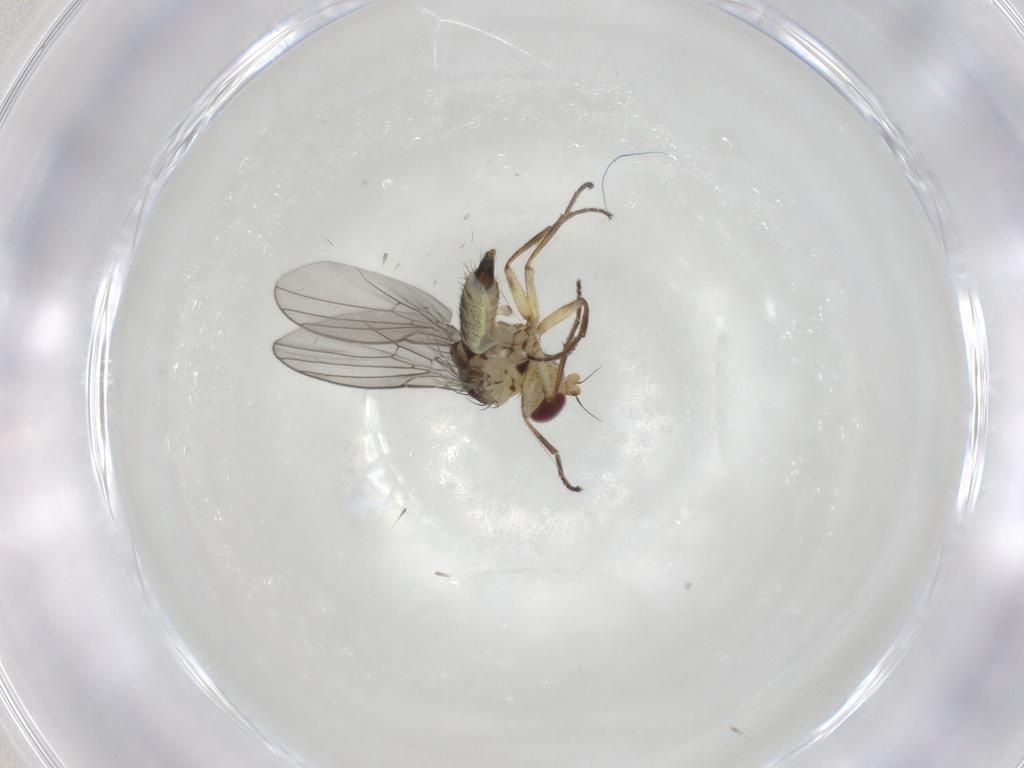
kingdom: Animalia
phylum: Arthropoda
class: Insecta
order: Diptera
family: Agromyzidae
